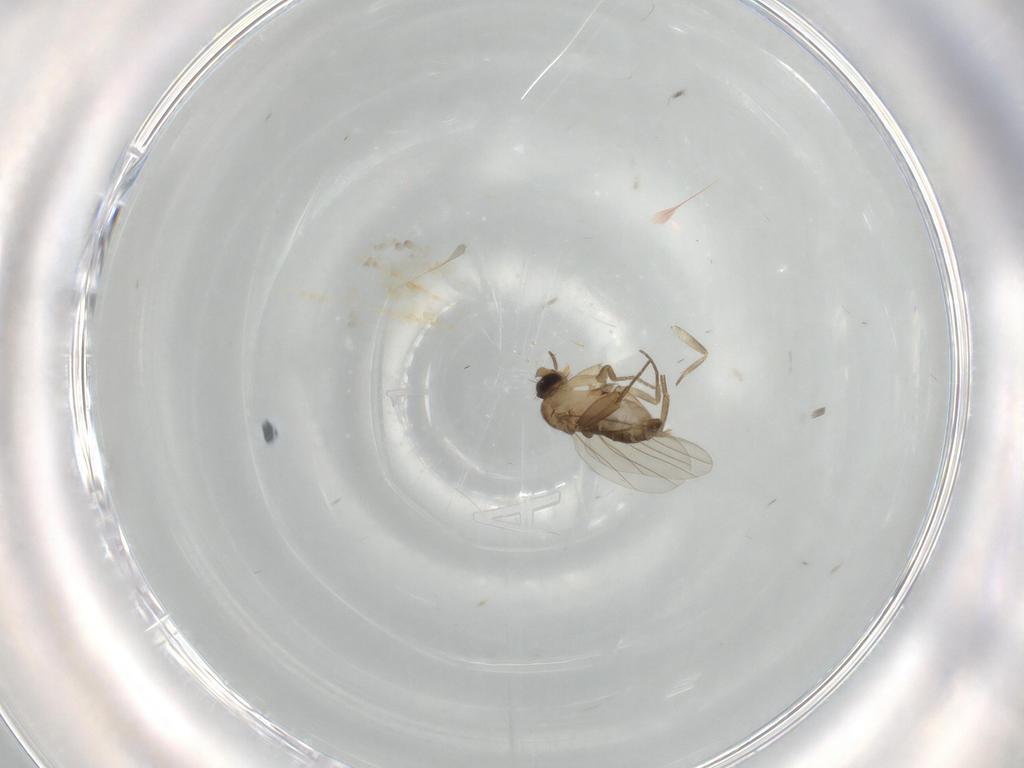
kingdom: Animalia
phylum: Arthropoda
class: Insecta
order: Diptera
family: Phoridae
